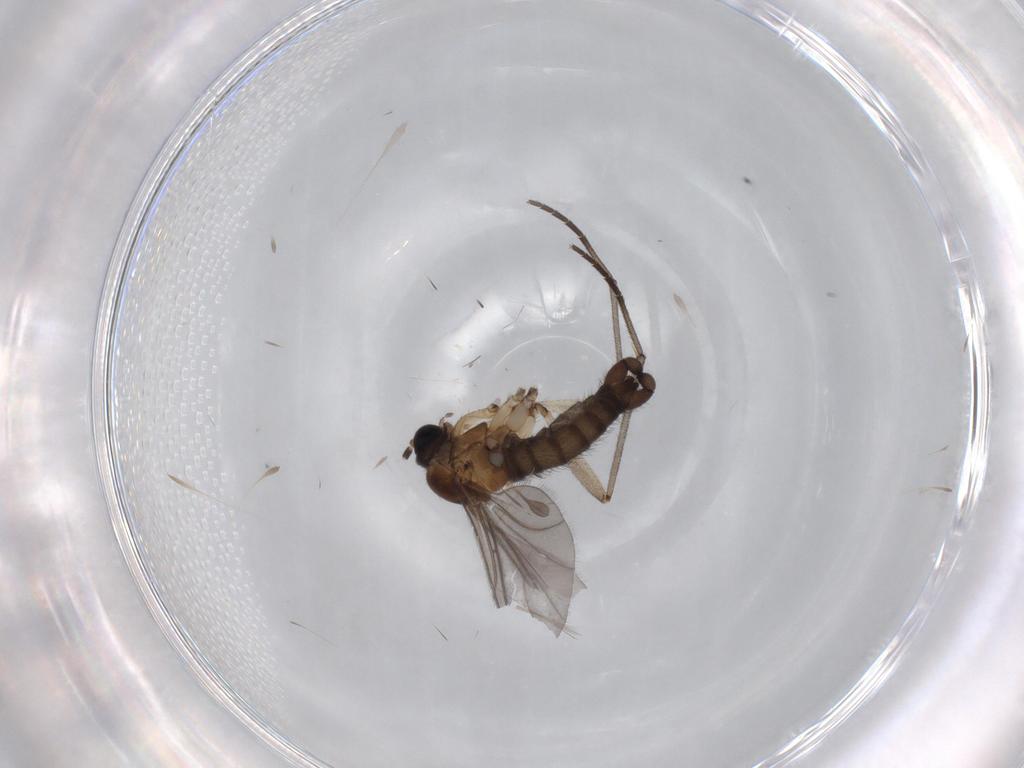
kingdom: Animalia
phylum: Arthropoda
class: Insecta
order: Diptera
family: Sciaridae
